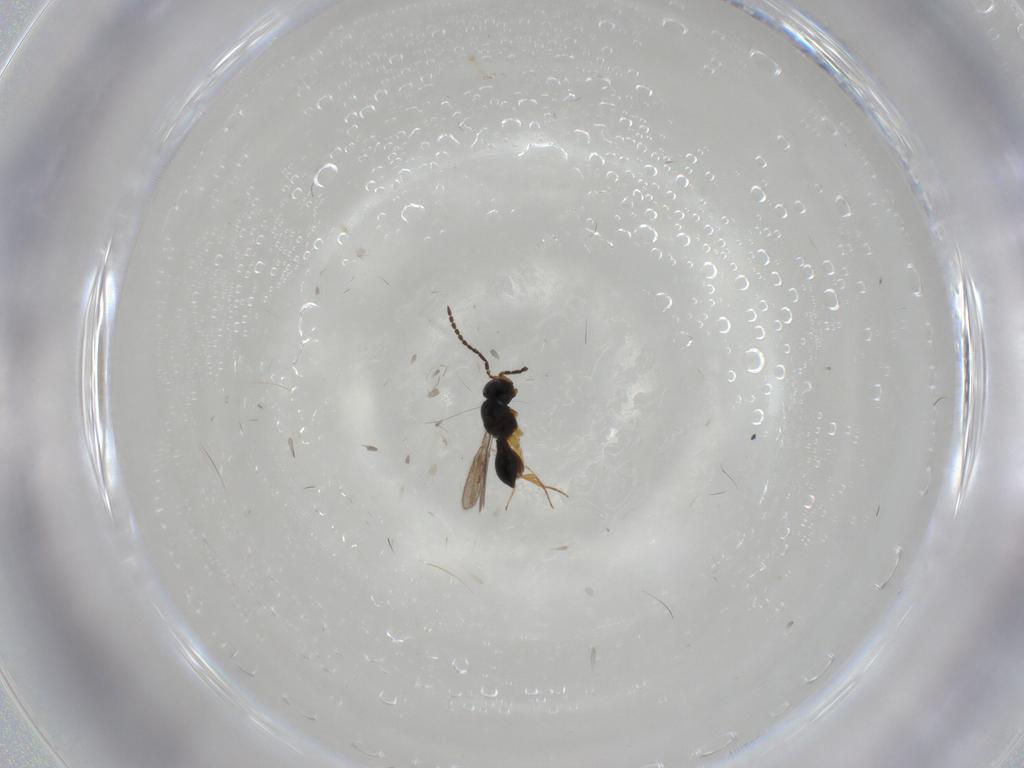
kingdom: Animalia
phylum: Arthropoda
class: Insecta
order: Hymenoptera
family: Scelionidae
